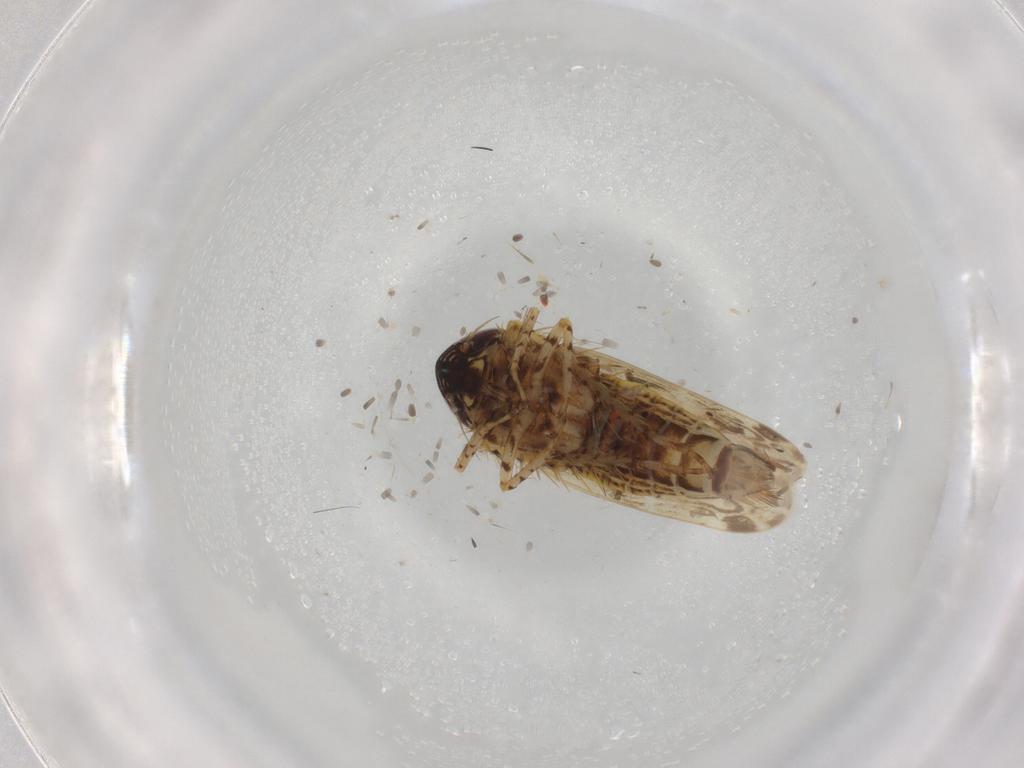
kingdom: Animalia
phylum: Arthropoda
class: Insecta
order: Hemiptera
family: Cicadellidae
